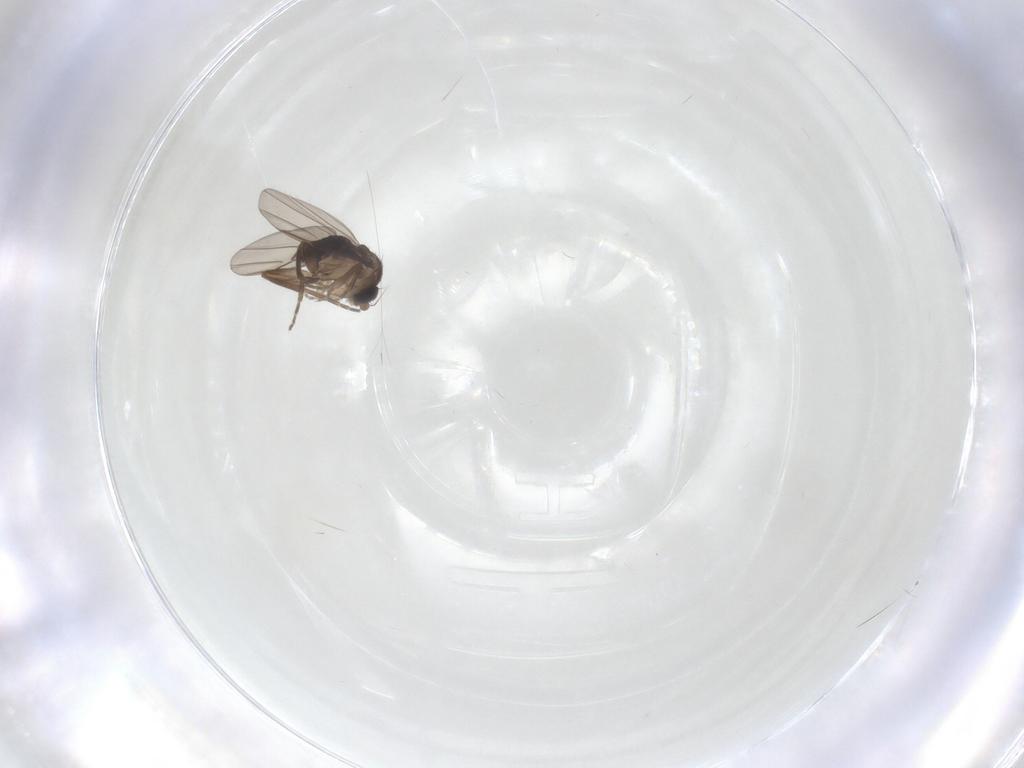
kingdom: Animalia
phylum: Arthropoda
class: Insecta
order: Diptera
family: Phoridae
